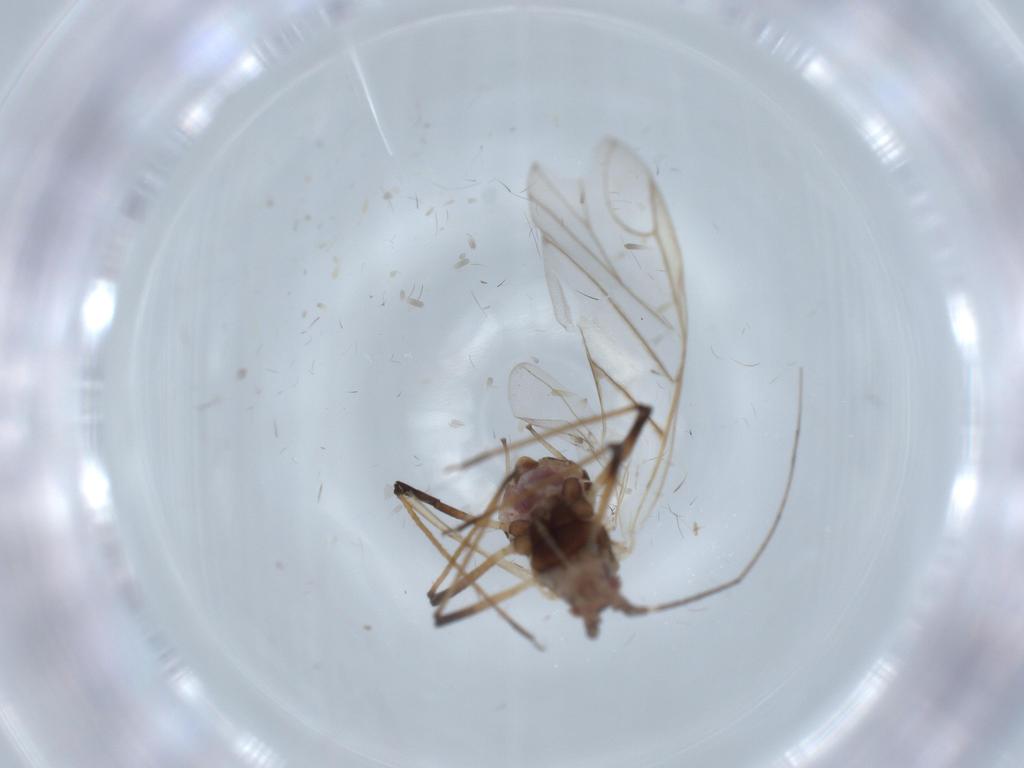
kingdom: Animalia
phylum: Arthropoda
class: Insecta
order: Hemiptera
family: Aphididae
